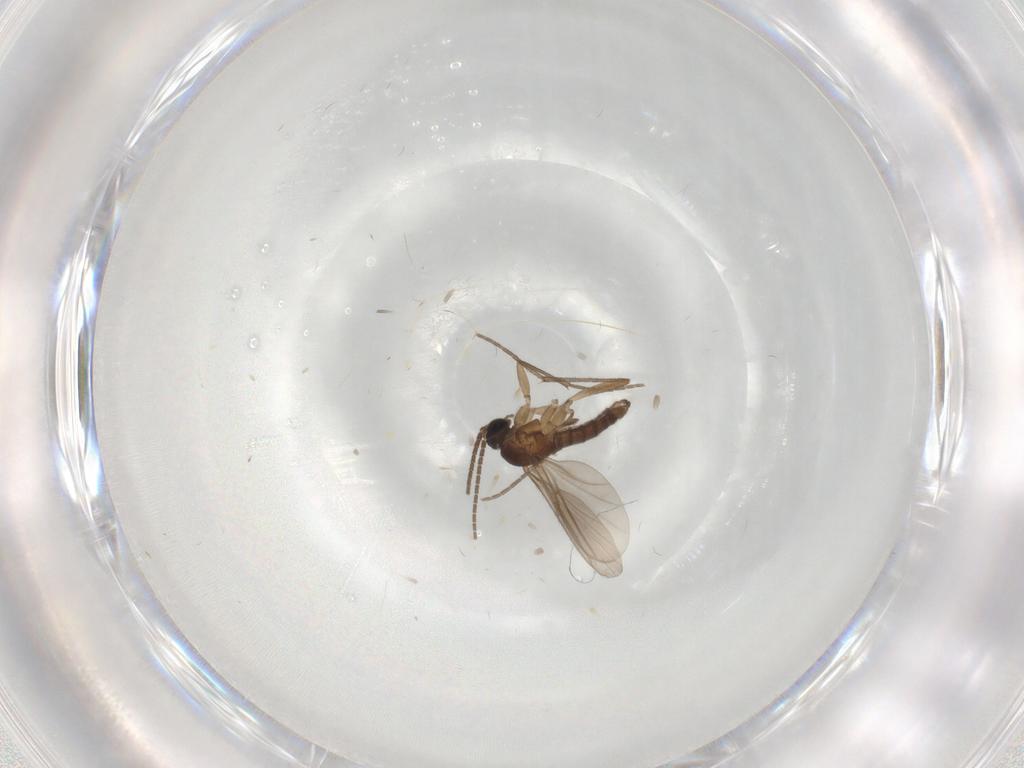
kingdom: Animalia
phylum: Arthropoda
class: Insecta
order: Diptera
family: Sciaridae
